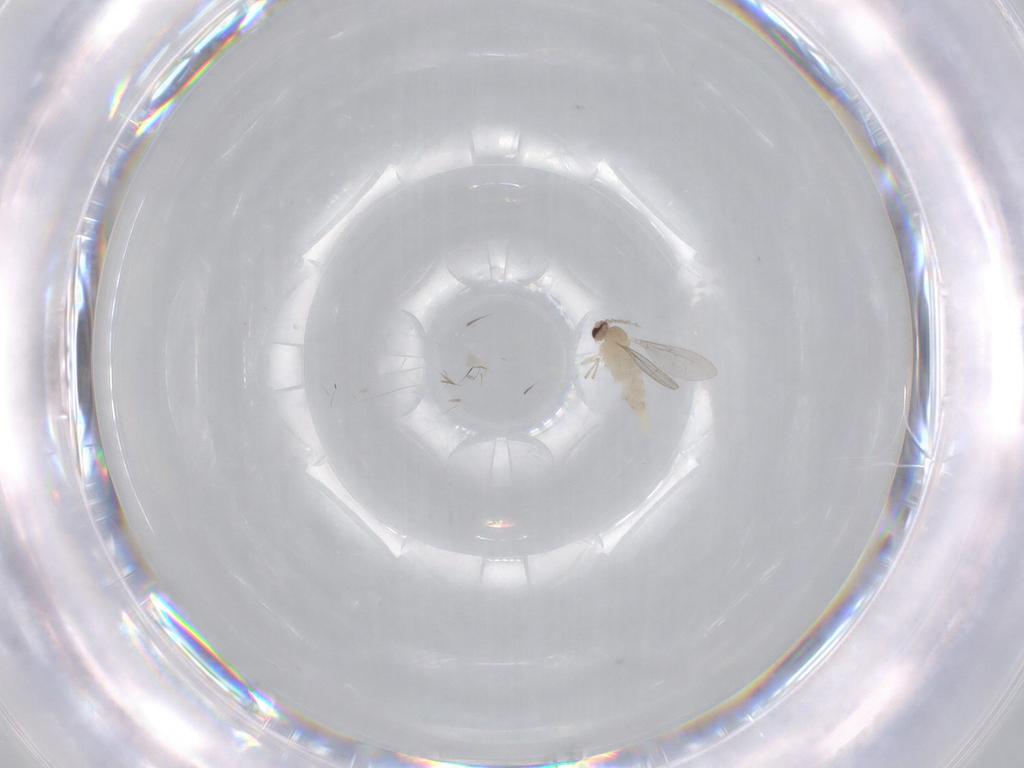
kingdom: Animalia
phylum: Arthropoda
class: Insecta
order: Diptera
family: Cecidomyiidae
